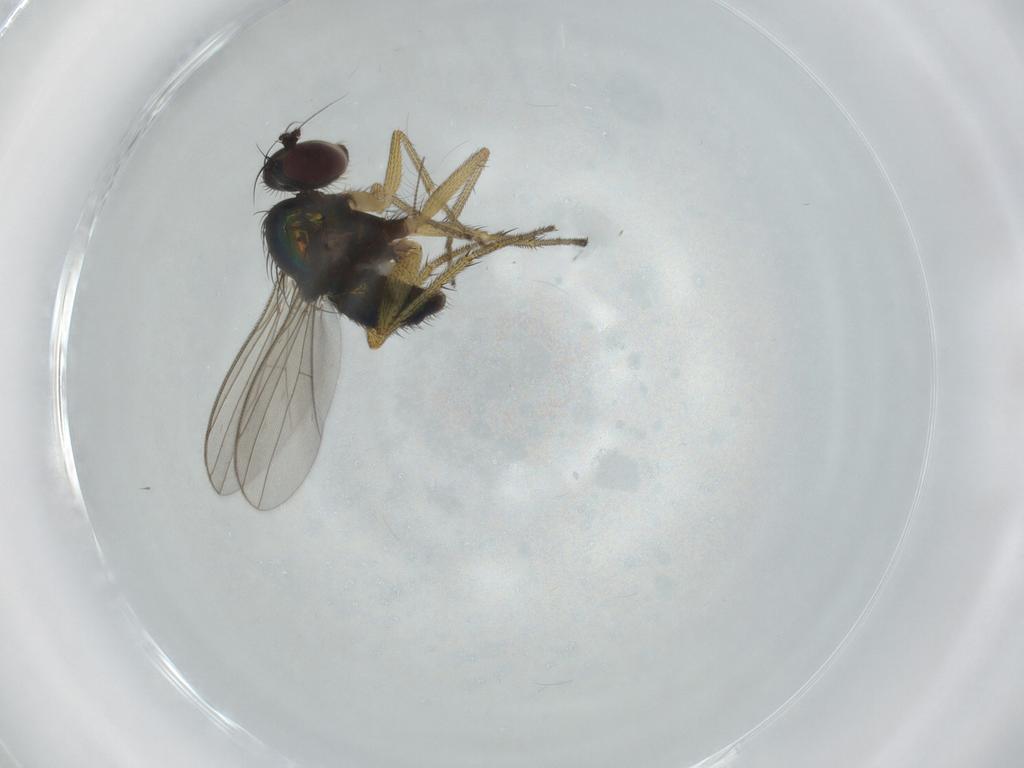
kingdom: Animalia
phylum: Arthropoda
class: Insecta
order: Diptera
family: Dolichopodidae
